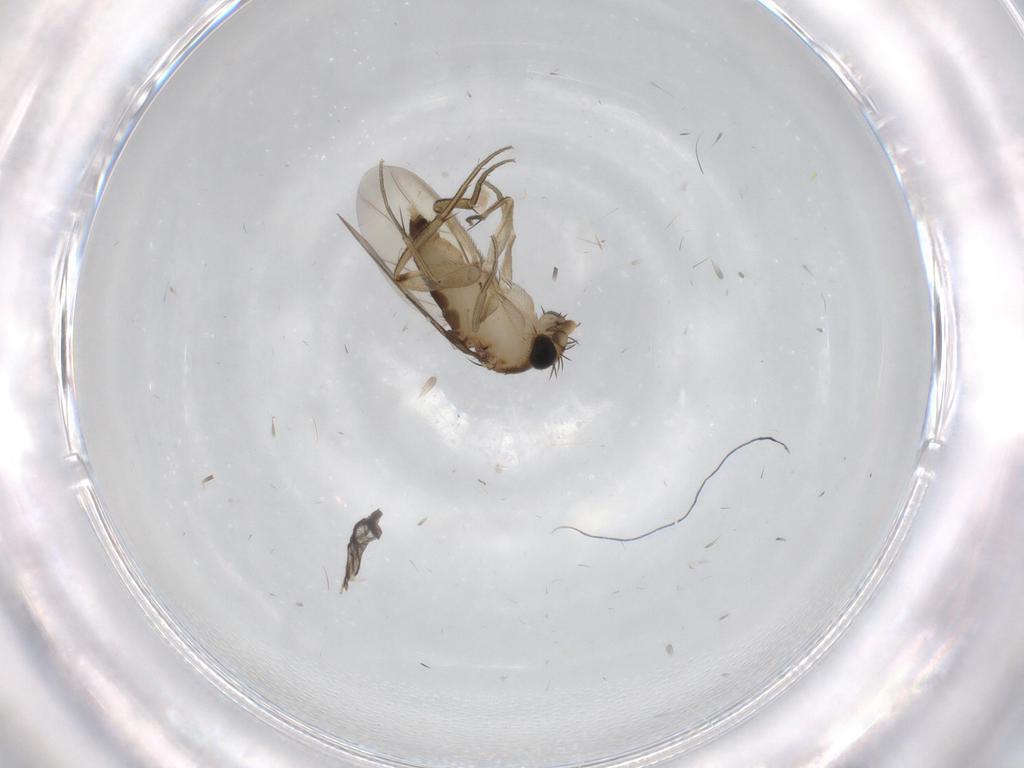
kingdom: Animalia
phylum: Arthropoda
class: Insecta
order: Diptera
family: Phoridae
